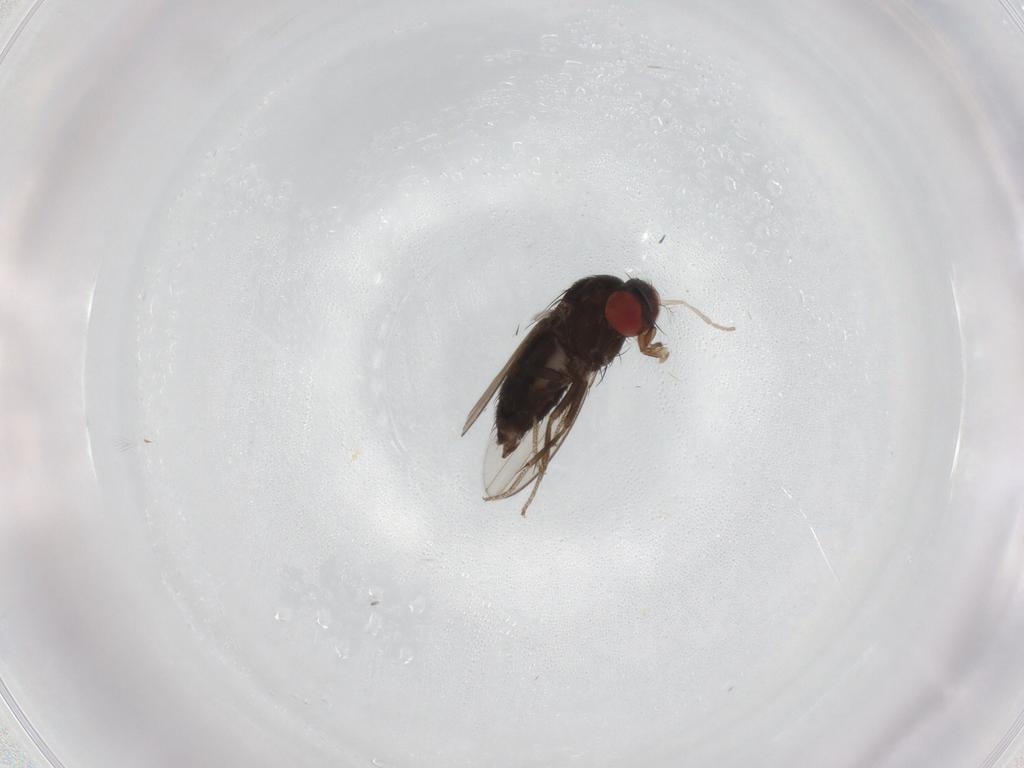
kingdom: Animalia
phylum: Arthropoda
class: Insecta
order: Diptera
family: Drosophilidae
